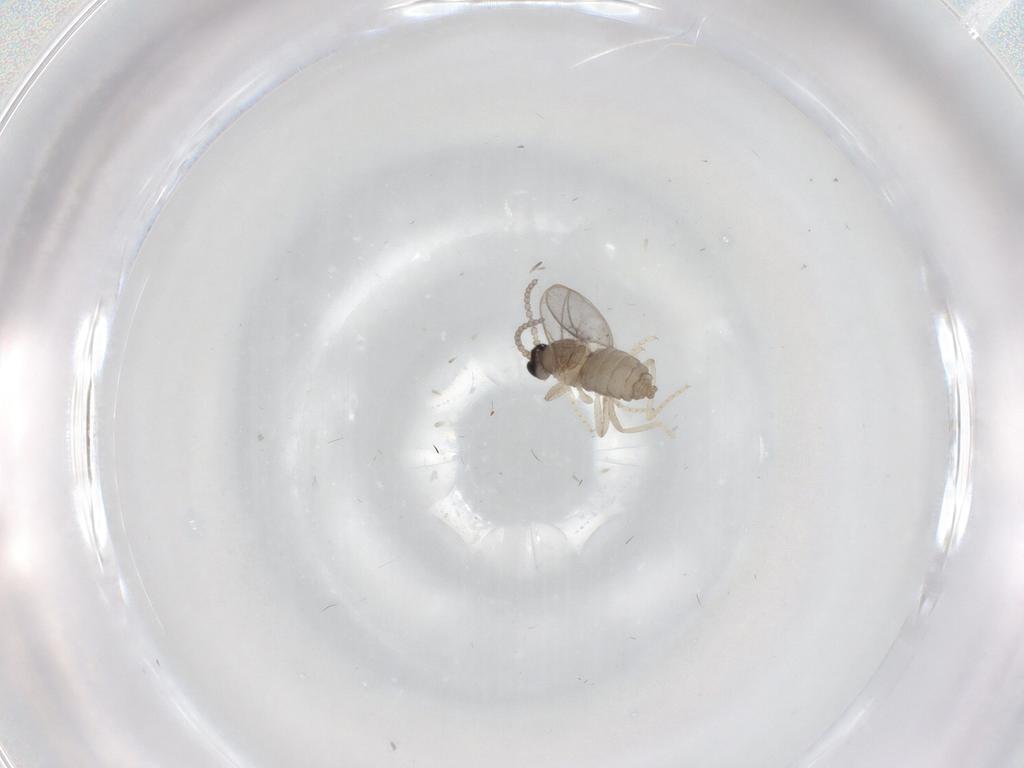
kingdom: Animalia
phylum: Arthropoda
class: Insecta
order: Diptera
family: Cecidomyiidae
